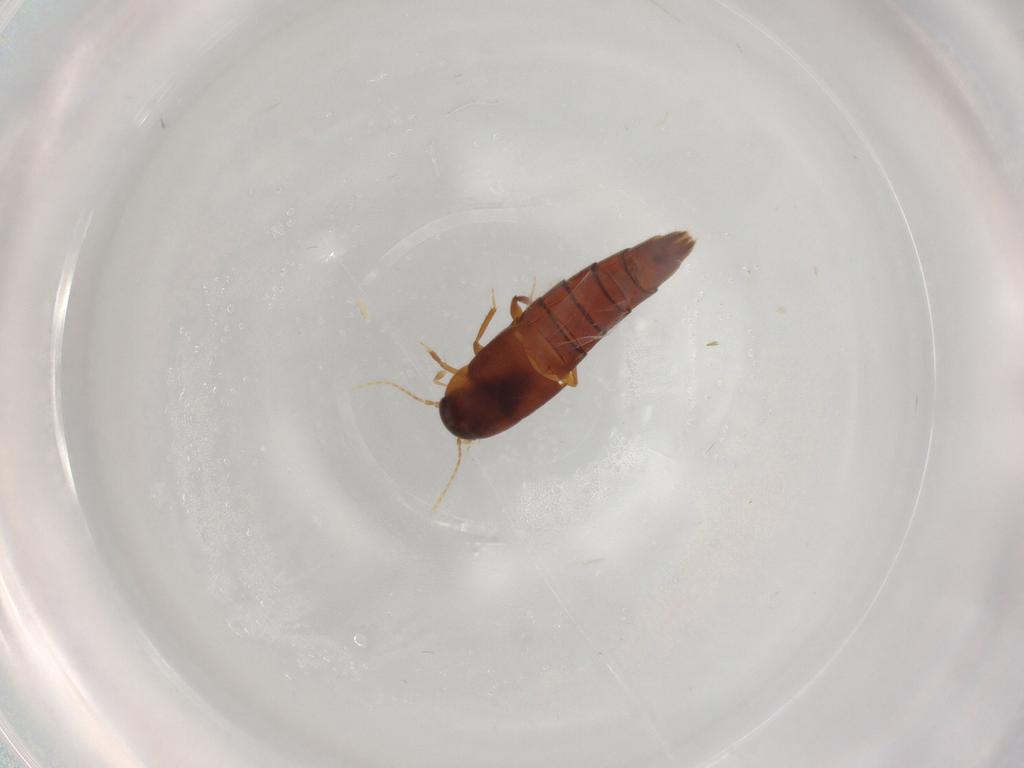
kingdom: Animalia
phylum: Arthropoda
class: Insecta
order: Coleoptera
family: Staphylinidae
